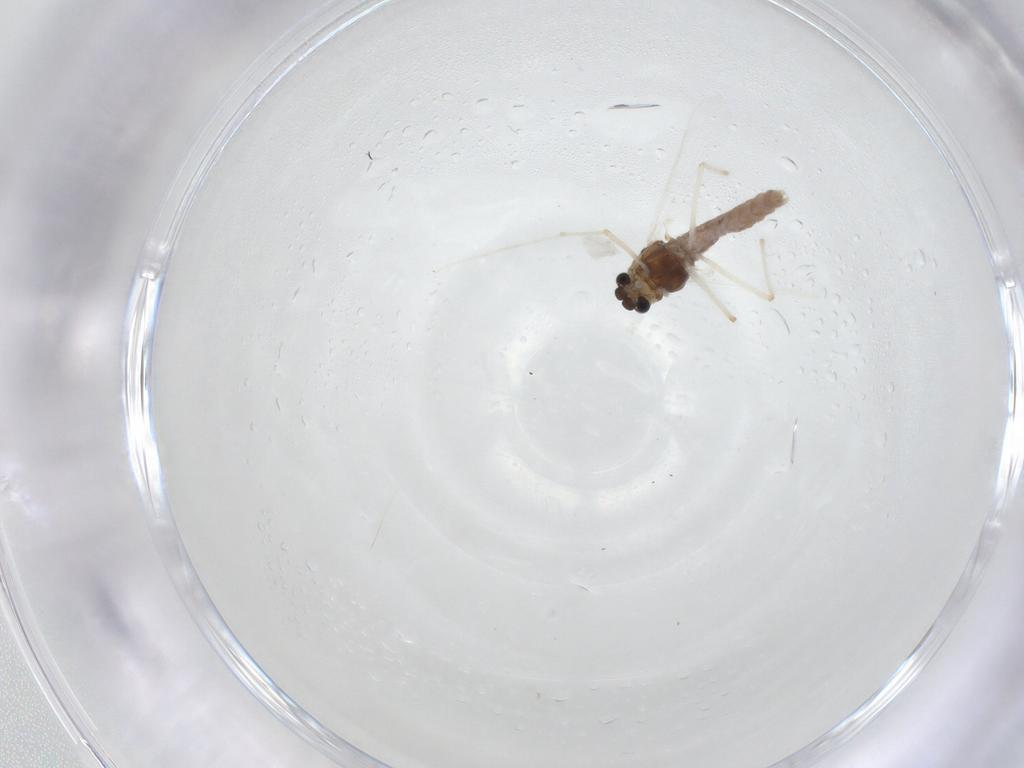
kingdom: Animalia
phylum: Arthropoda
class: Insecta
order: Diptera
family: Chironomidae
